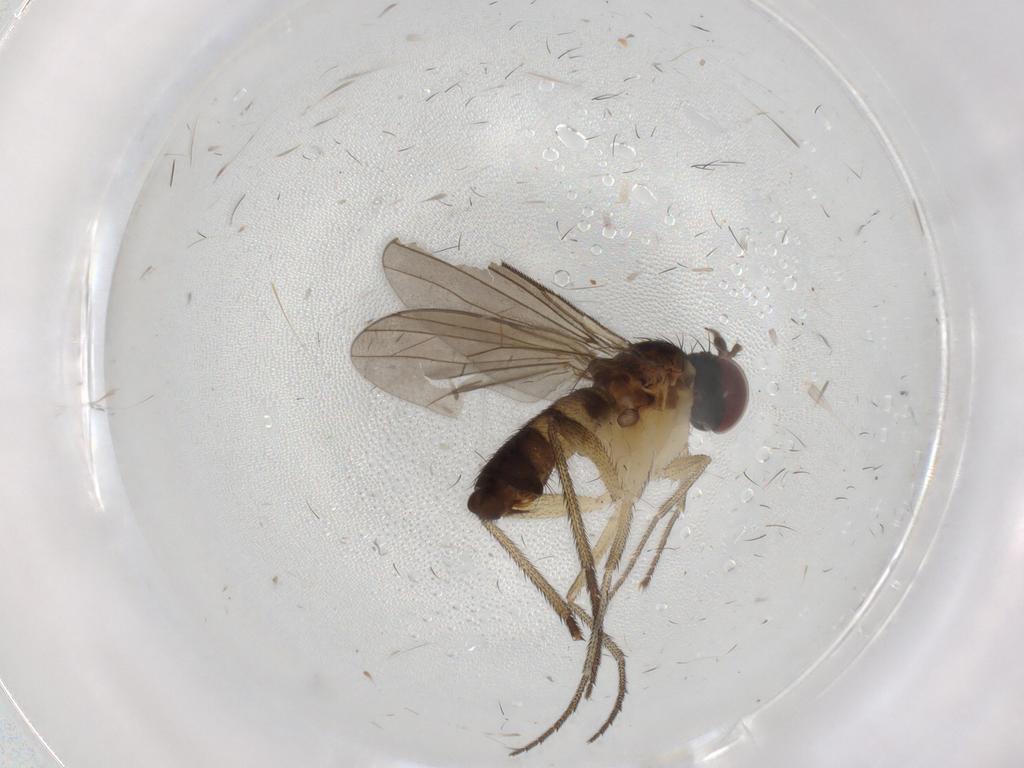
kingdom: Animalia
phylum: Arthropoda
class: Insecta
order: Diptera
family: Dolichopodidae
